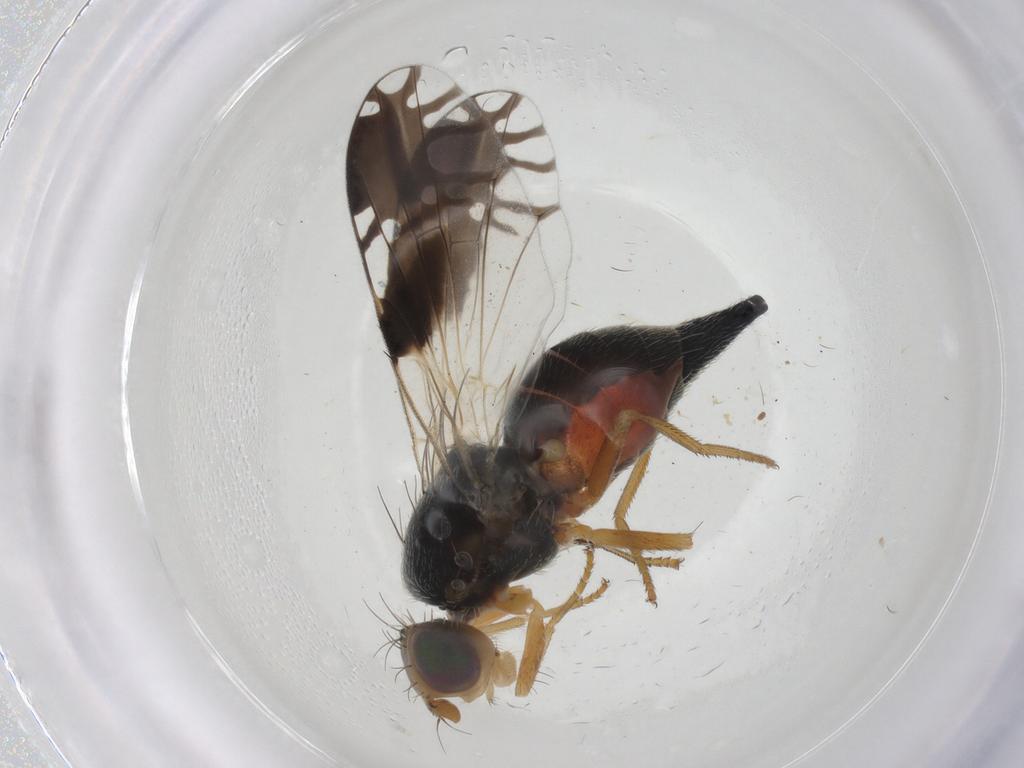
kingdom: Animalia
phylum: Arthropoda
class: Insecta
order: Diptera
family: Tephritidae
